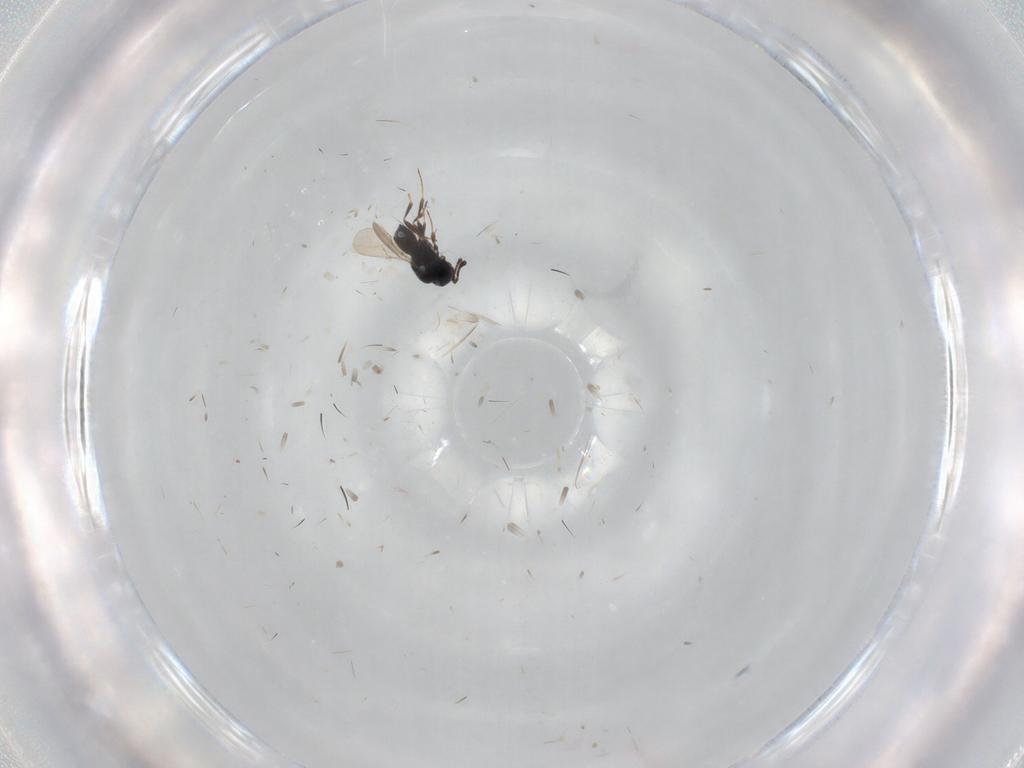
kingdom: Animalia
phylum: Arthropoda
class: Insecta
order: Hymenoptera
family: Scelionidae
